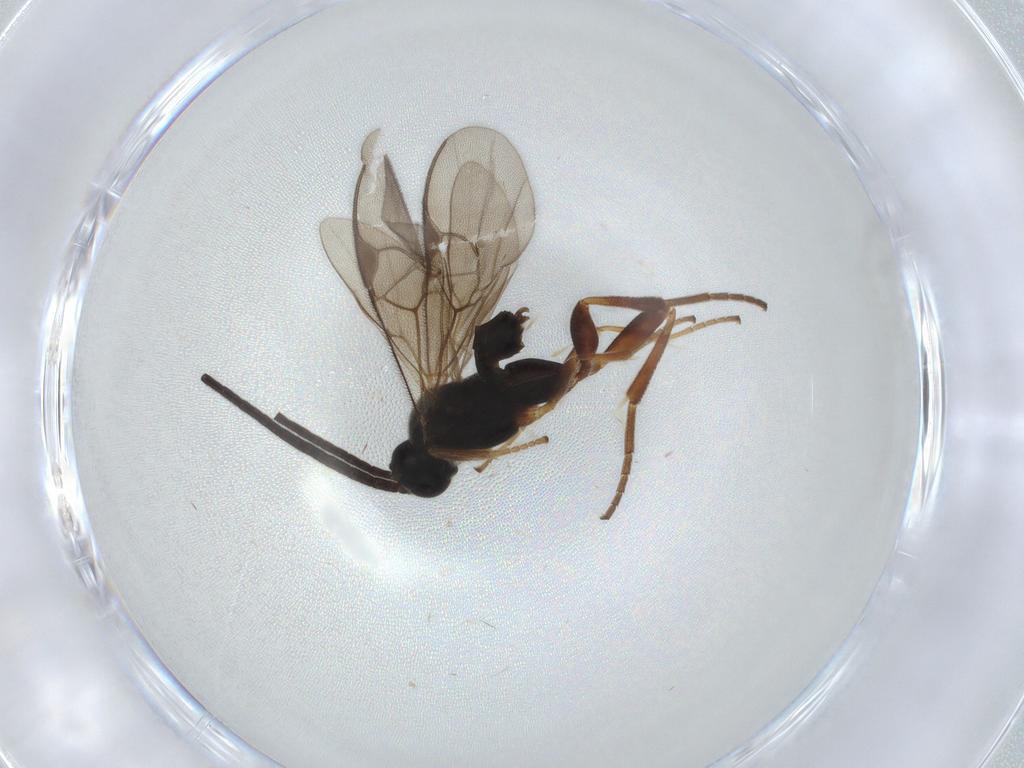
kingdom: Animalia
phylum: Arthropoda
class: Insecta
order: Hymenoptera
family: Braconidae
